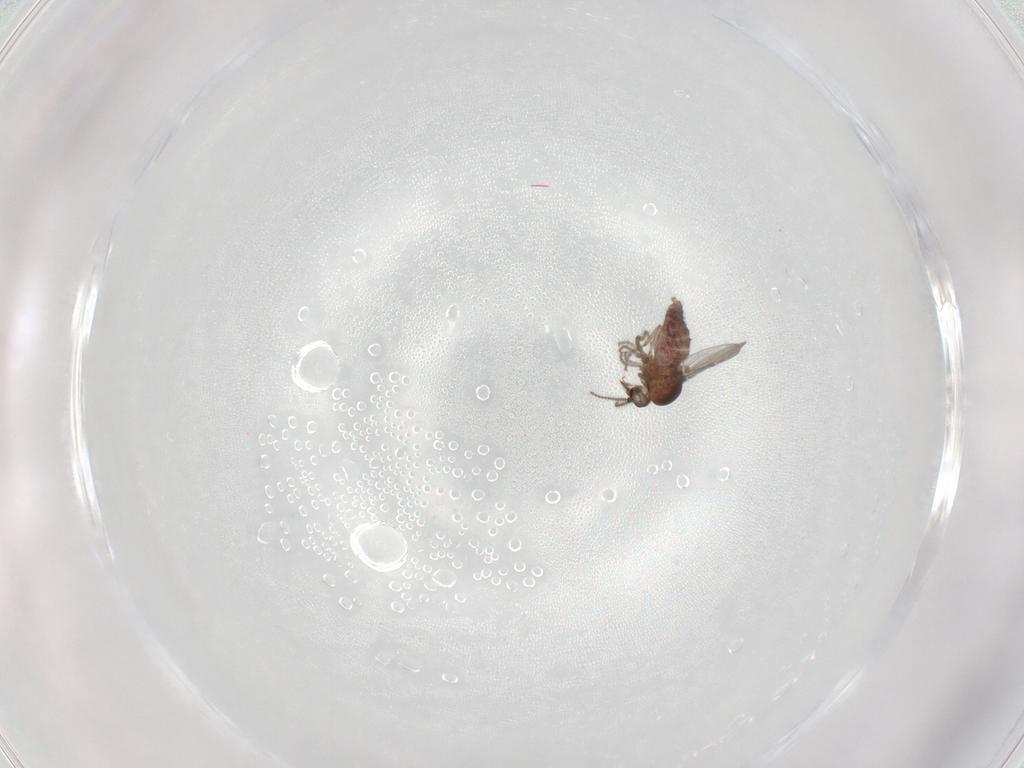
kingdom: Animalia
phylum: Arthropoda
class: Insecta
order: Diptera
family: Ceratopogonidae
